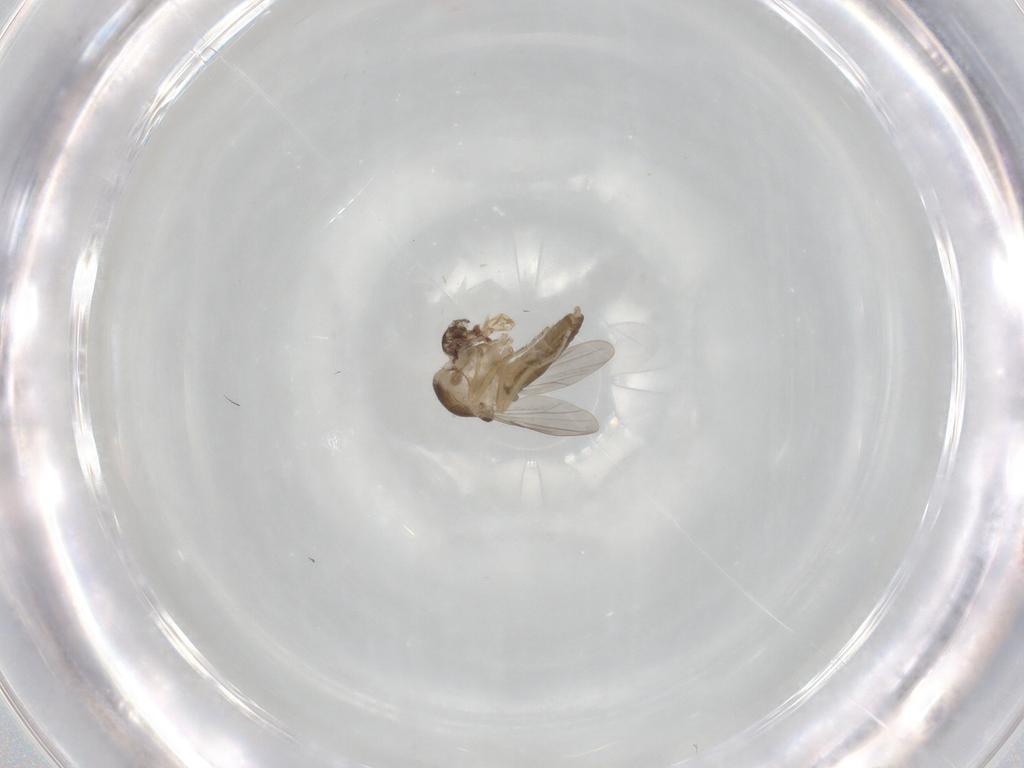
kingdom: Animalia
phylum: Arthropoda
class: Insecta
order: Diptera
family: Ceratopogonidae
